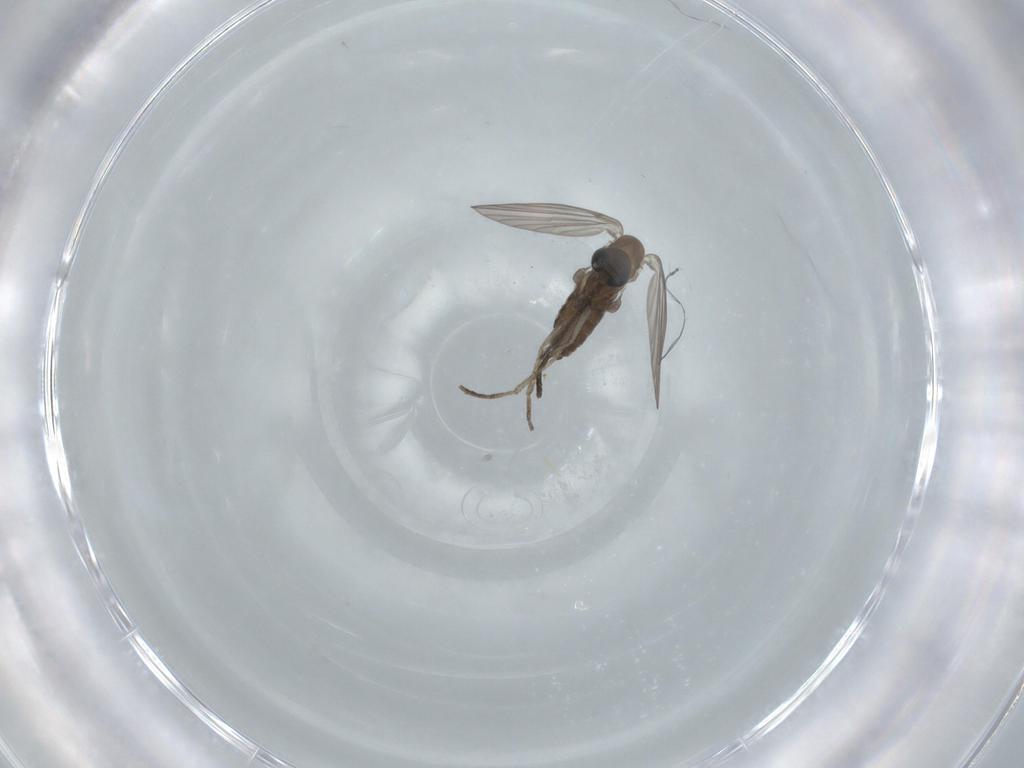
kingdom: Animalia
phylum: Arthropoda
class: Insecta
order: Diptera
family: Psychodidae
